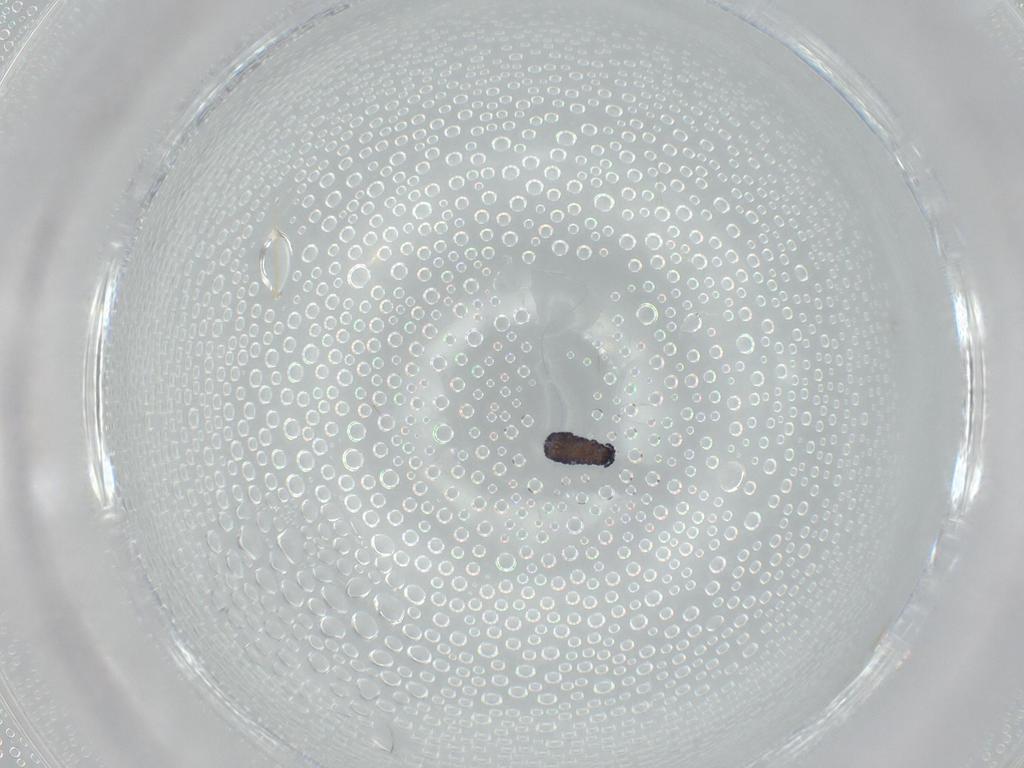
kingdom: Animalia
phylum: Arthropoda
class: Collembola
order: Poduromorpha
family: Neanuridae
